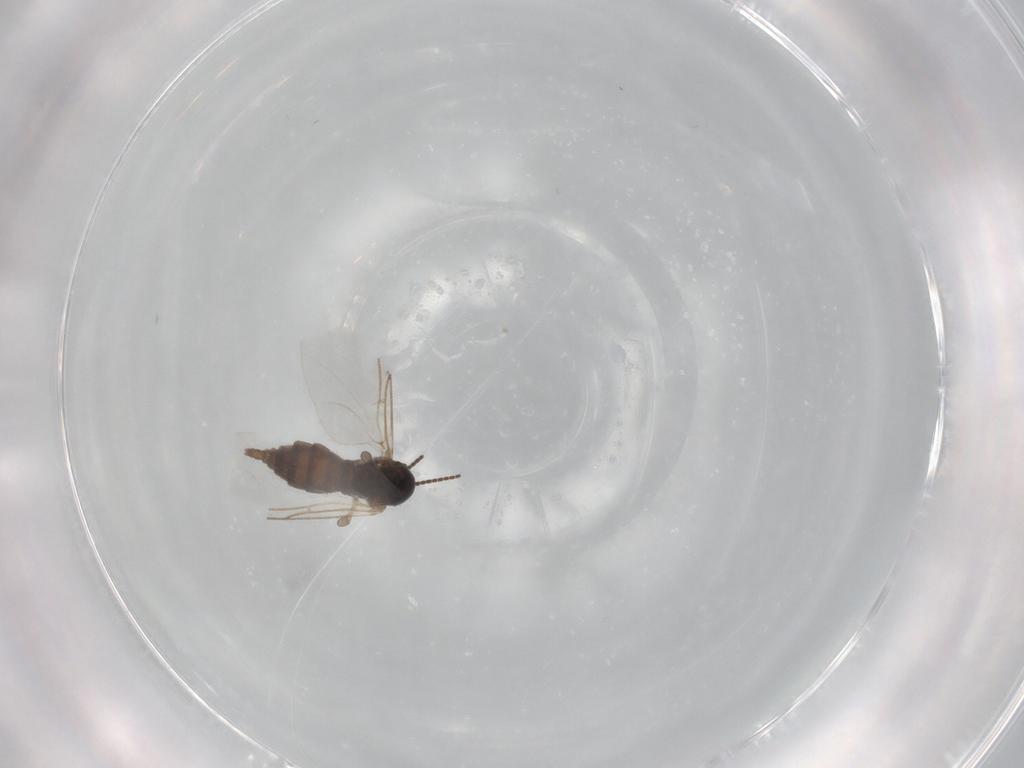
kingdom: Animalia
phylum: Arthropoda
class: Insecta
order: Diptera
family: Sciaridae
